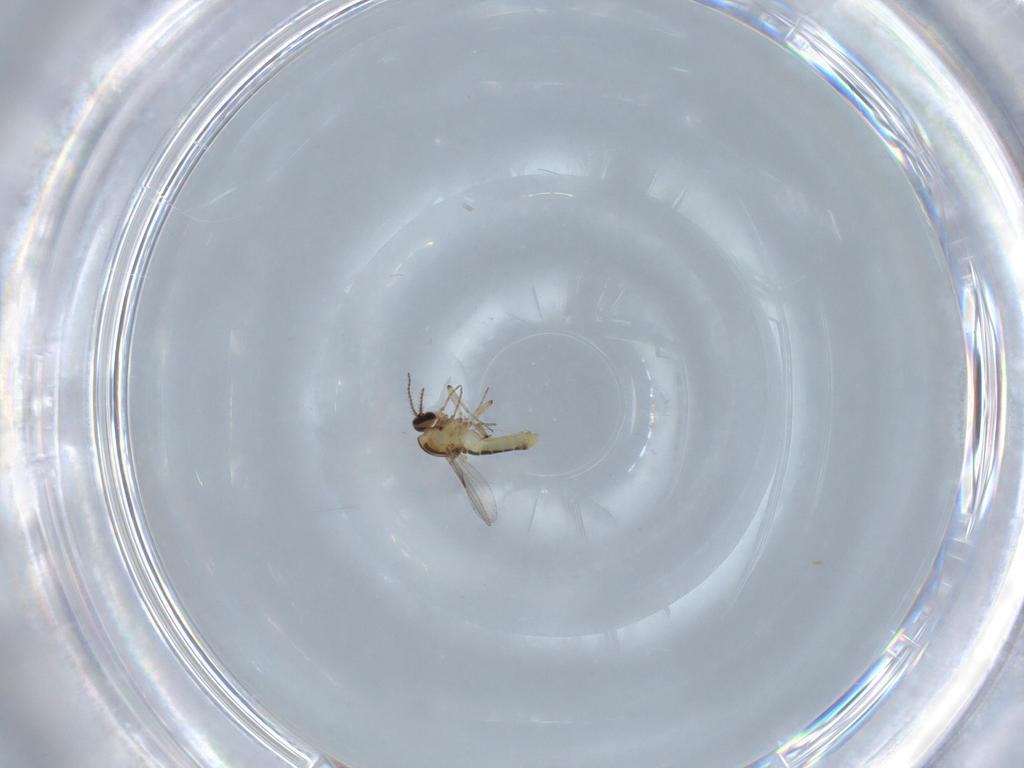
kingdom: Animalia
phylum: Arthropoda
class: Insecta
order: Diptera
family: Ceratopogonidae
